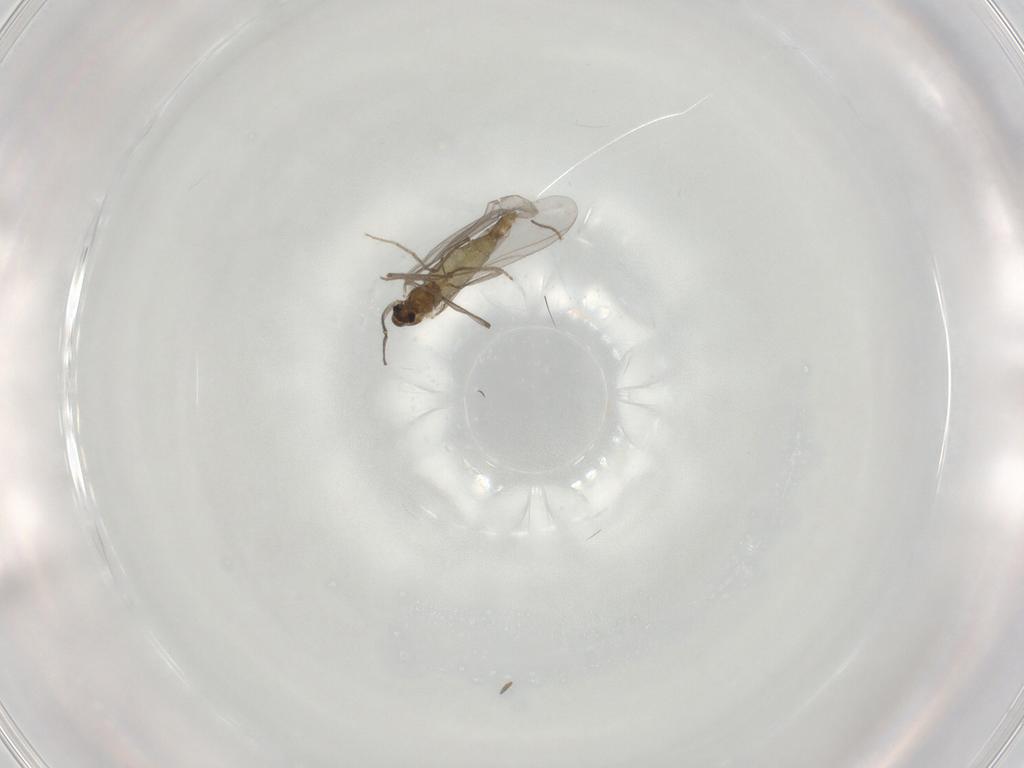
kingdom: Animalia
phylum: Arthropoda
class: Insecta
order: Diptera
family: Chironomidae
